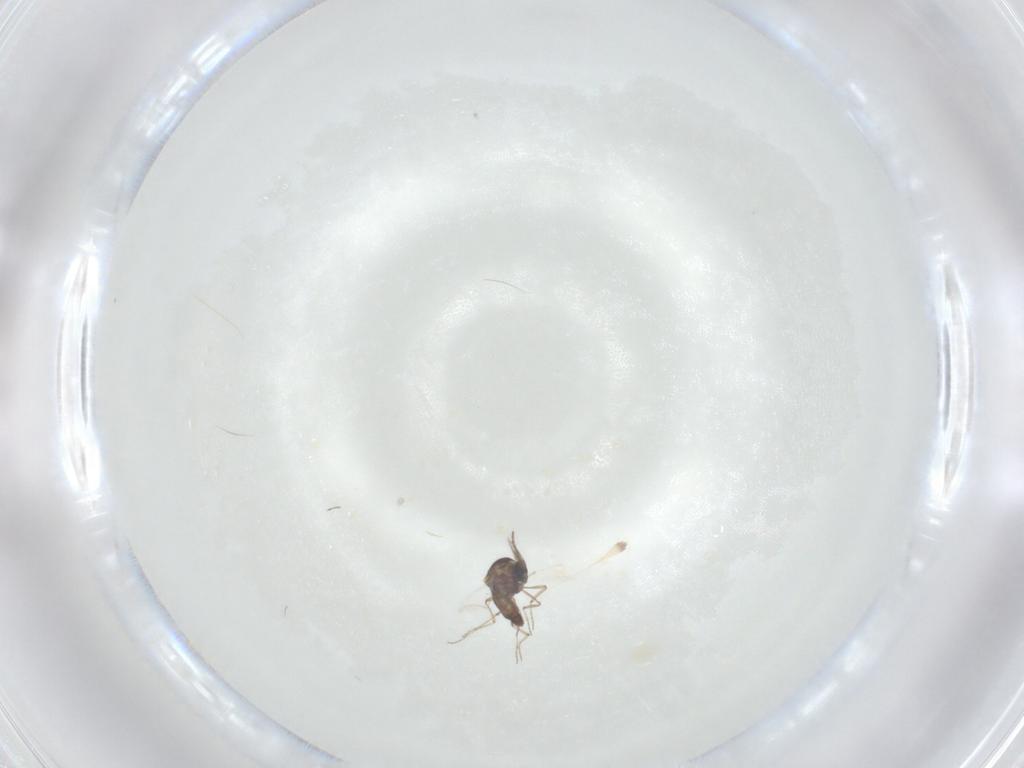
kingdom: Animalia
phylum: Arthropoda
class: Insecta
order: Diptera
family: Ceratopogonidae
